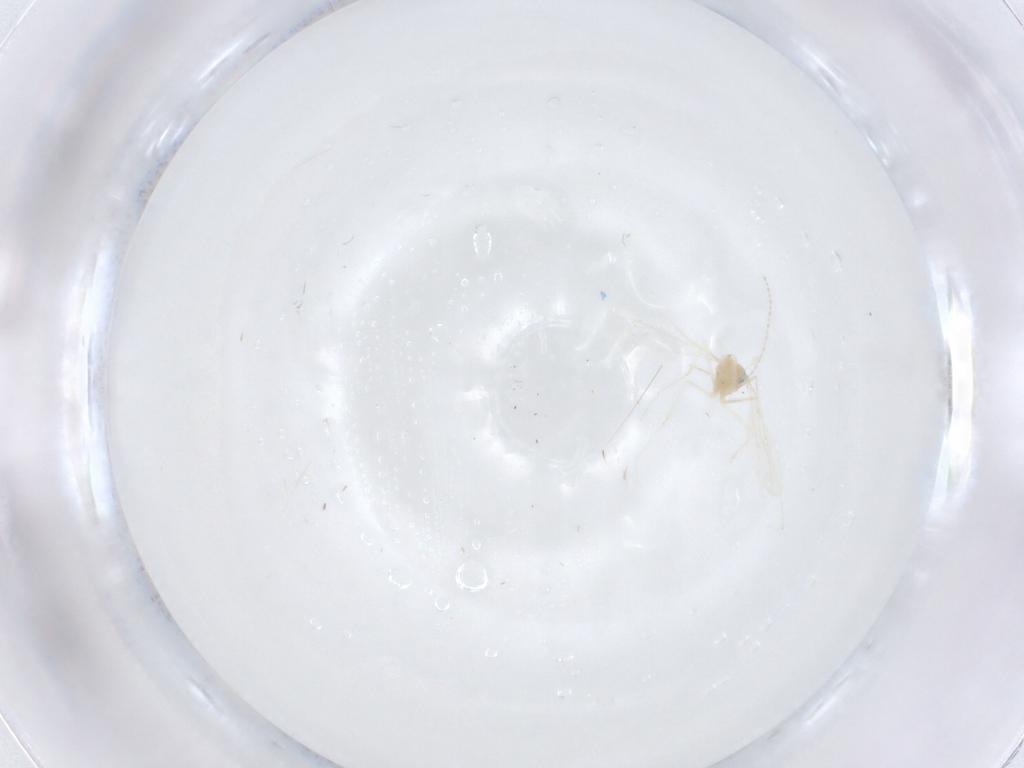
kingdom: Animalia
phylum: Arthropoda
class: Insecta
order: Diptera
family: Cecidomyiidae
